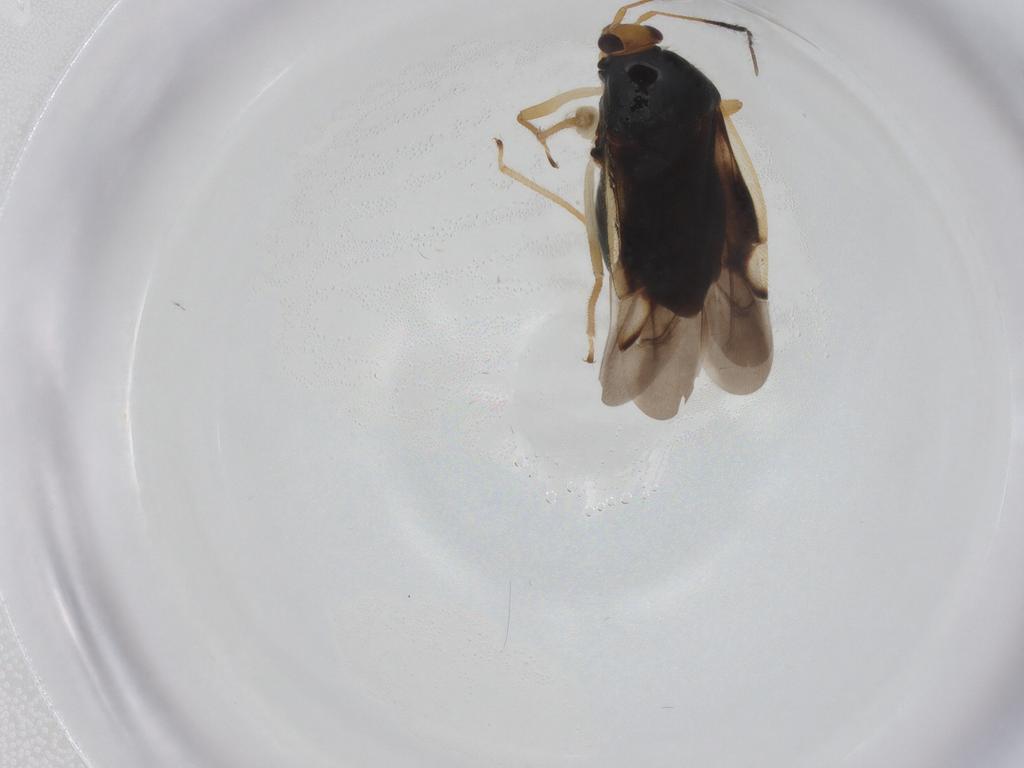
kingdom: Animalia
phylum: Arthropoda
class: Insecta
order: Hemiptera
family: Miridae
